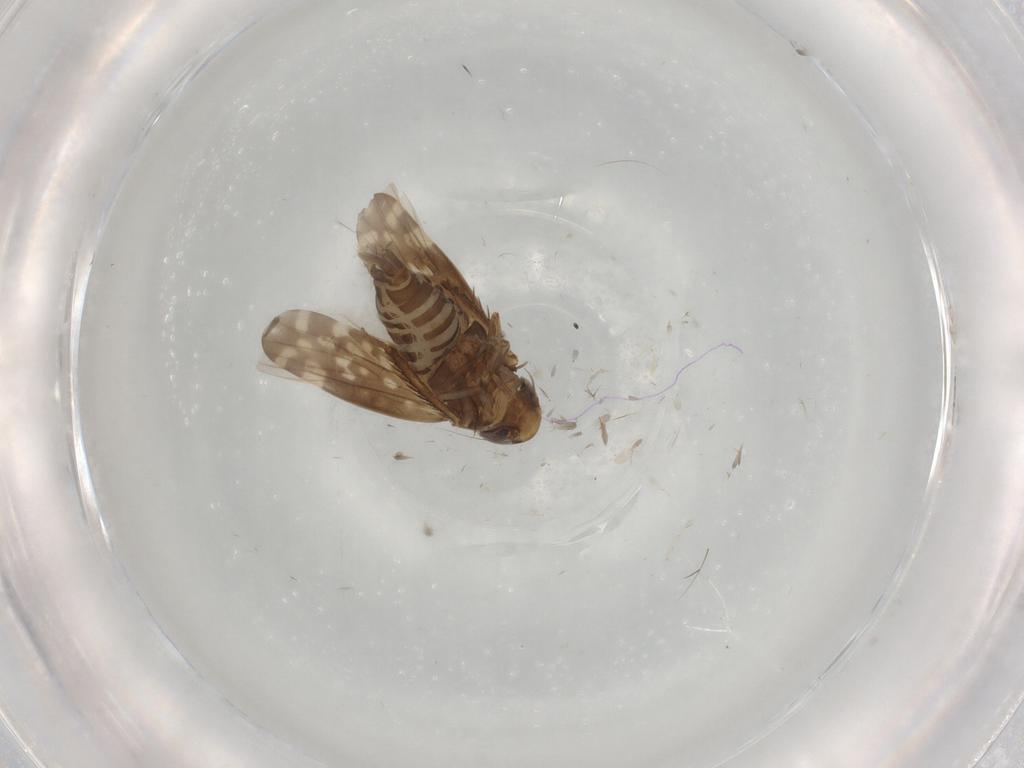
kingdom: Animalia
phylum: Arthropoda
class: Insecta
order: Hemiptera
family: Cicadellidae
